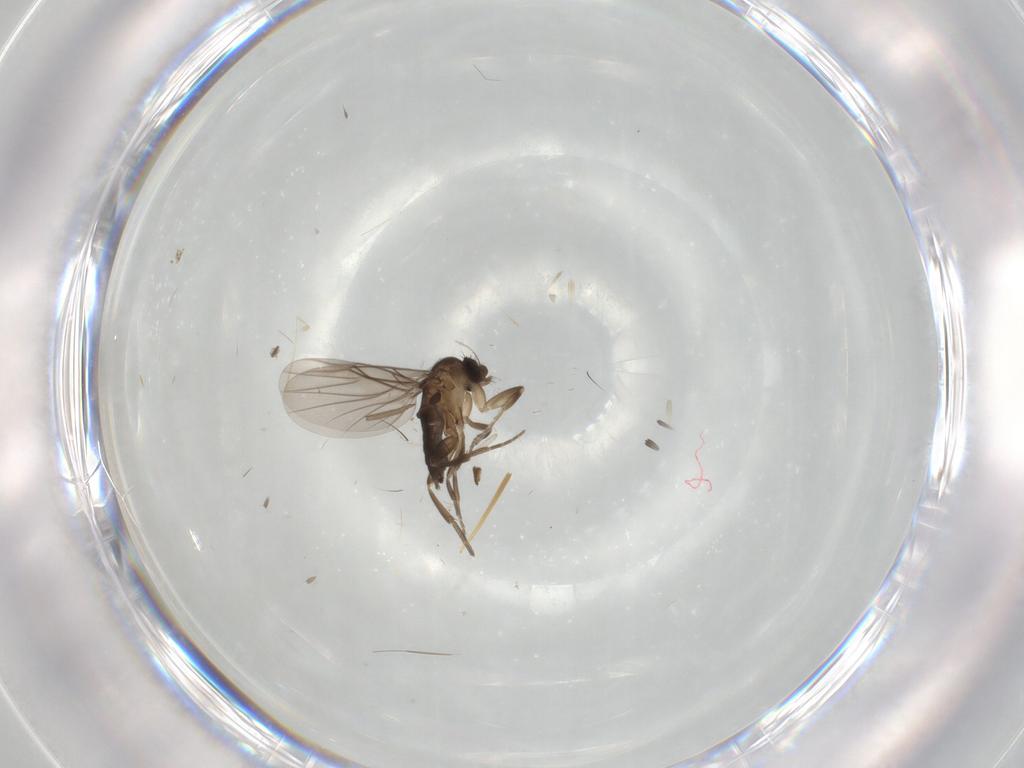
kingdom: Animalia
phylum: Arthropoda
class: Insecta
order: Diptera
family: Phoridae
